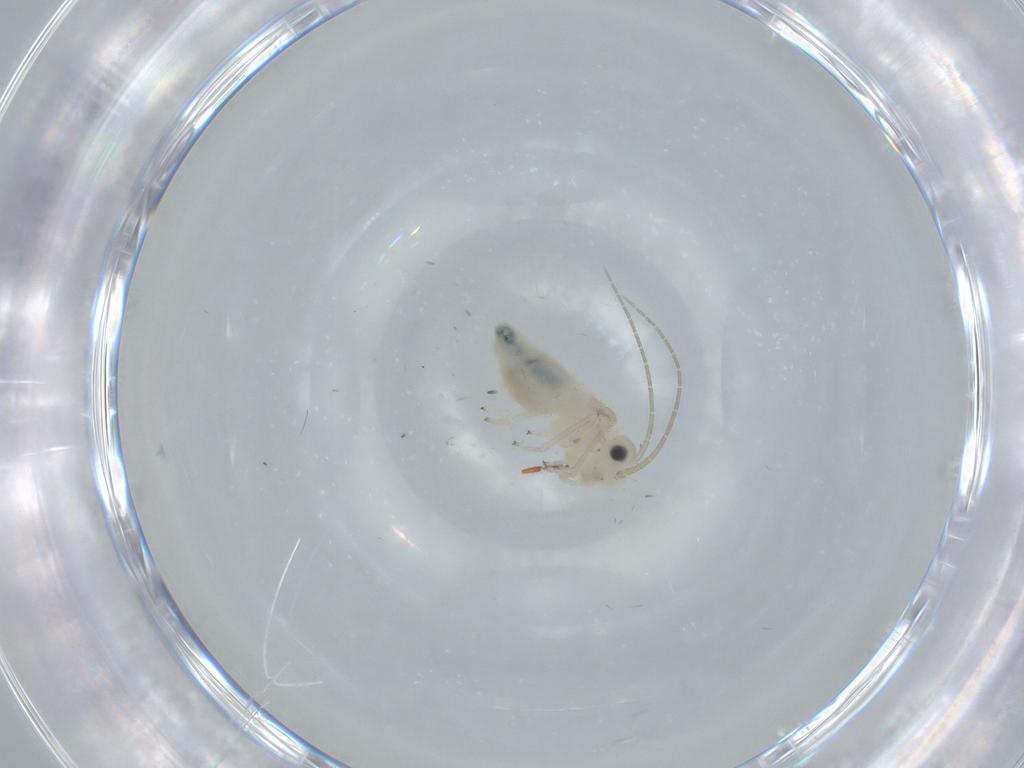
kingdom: Animalia
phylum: Arthropoda
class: Insecta
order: Psocodea
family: Caeciliusidae
